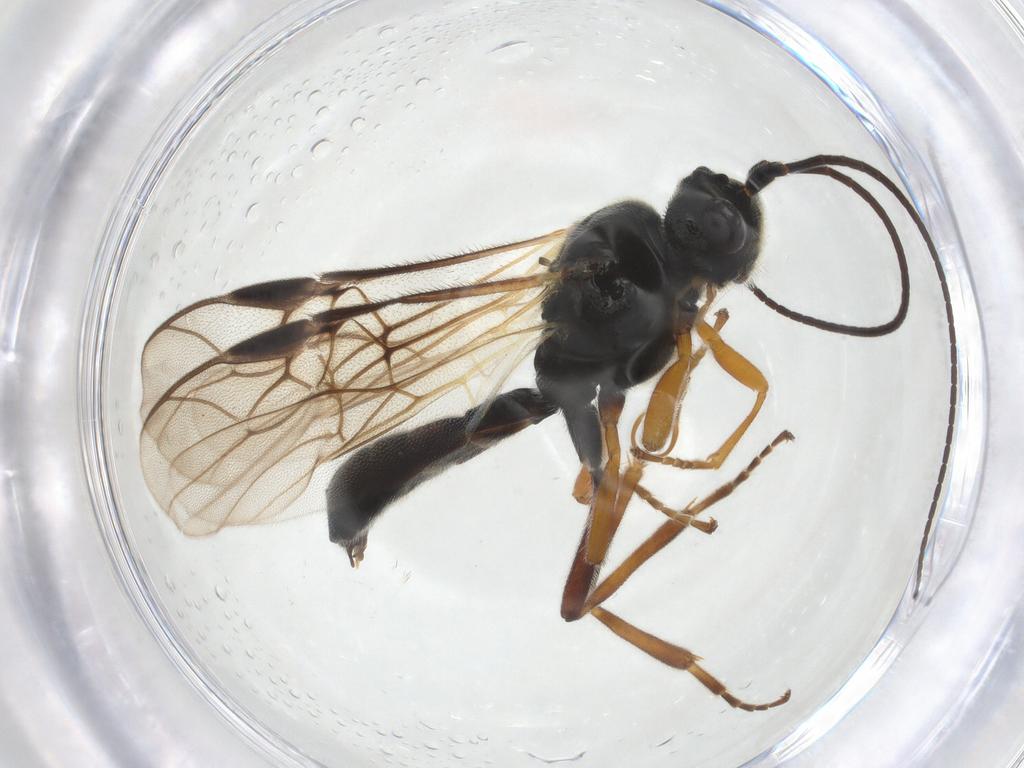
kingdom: Animalia
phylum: Arthropoda
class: Insecta
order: Hymenoptera
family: Braconidae
